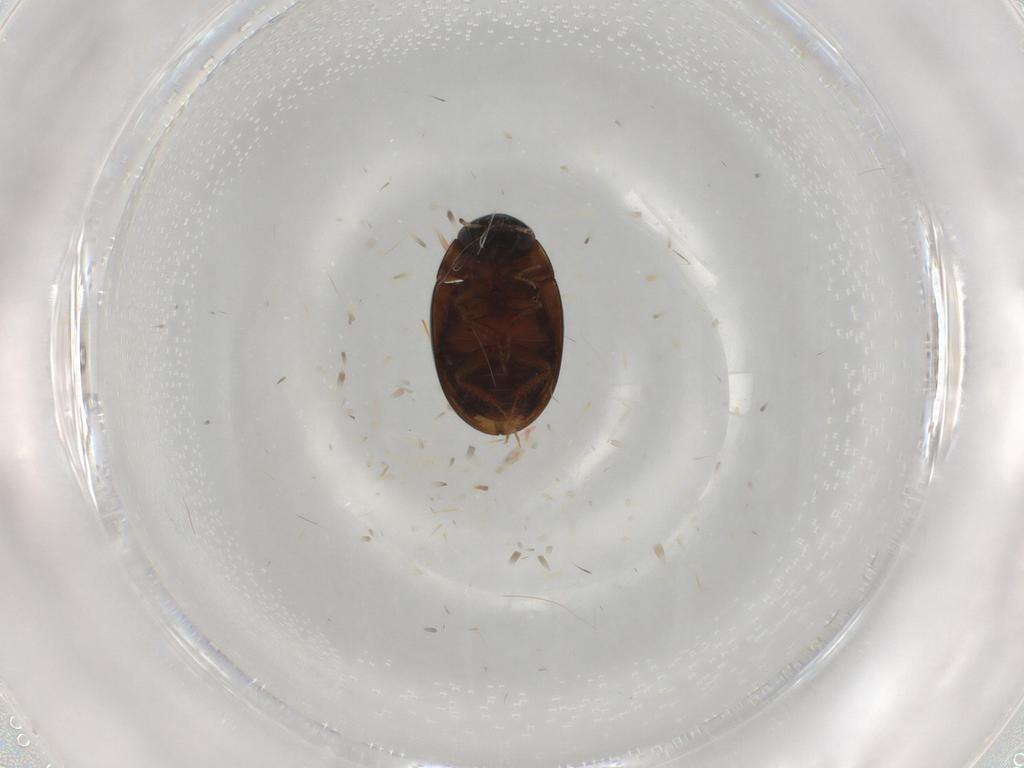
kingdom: Animalia
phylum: Arthropoda
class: Insecta
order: Coleoptera
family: Hydrophilidae
